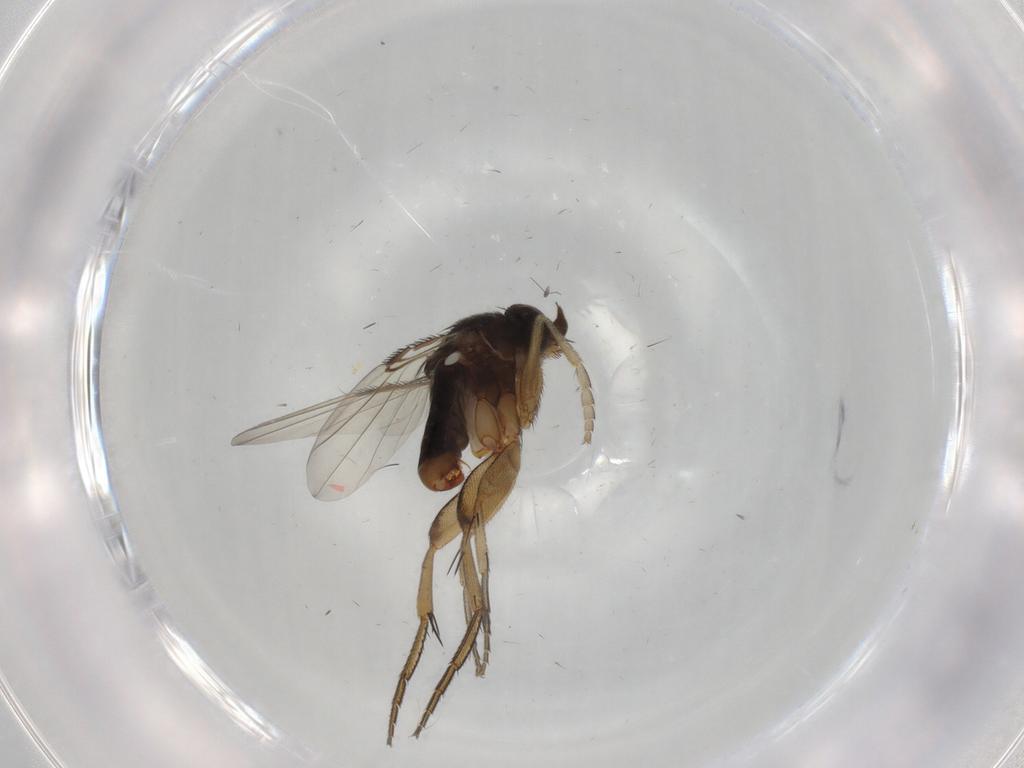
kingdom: Animalia
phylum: Arthropoda
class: Insecta
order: Diptera
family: Phoridae
